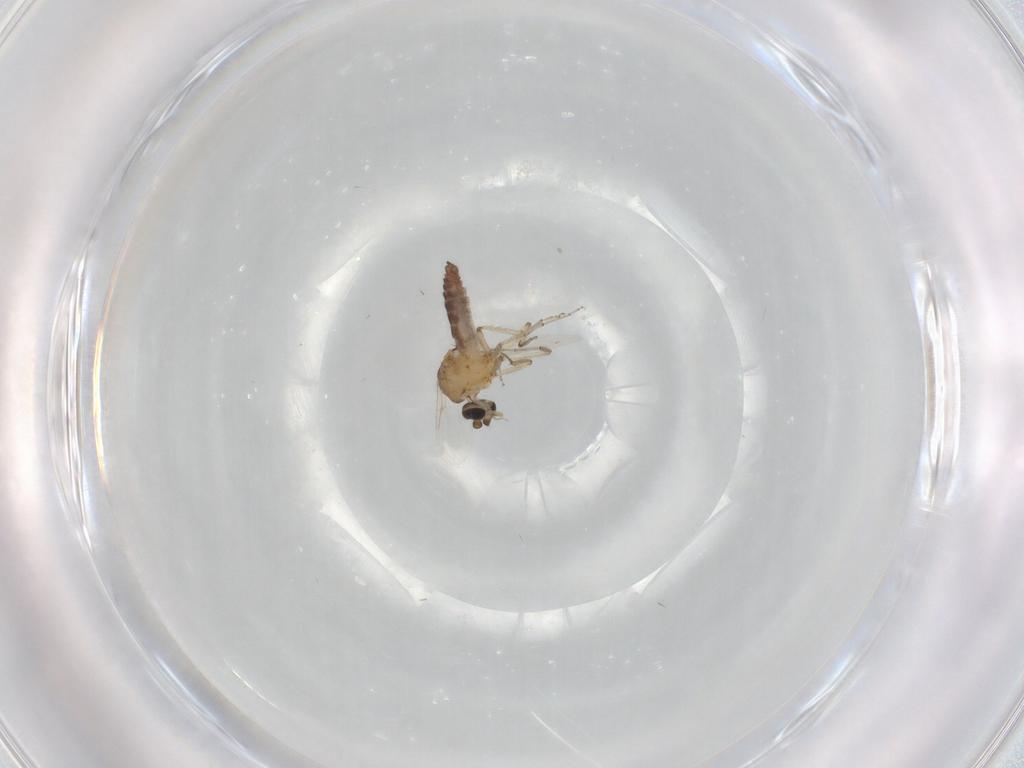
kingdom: Animalia
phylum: Arthropoda
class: Insecta
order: Diptera
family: Ceratopogonidae
